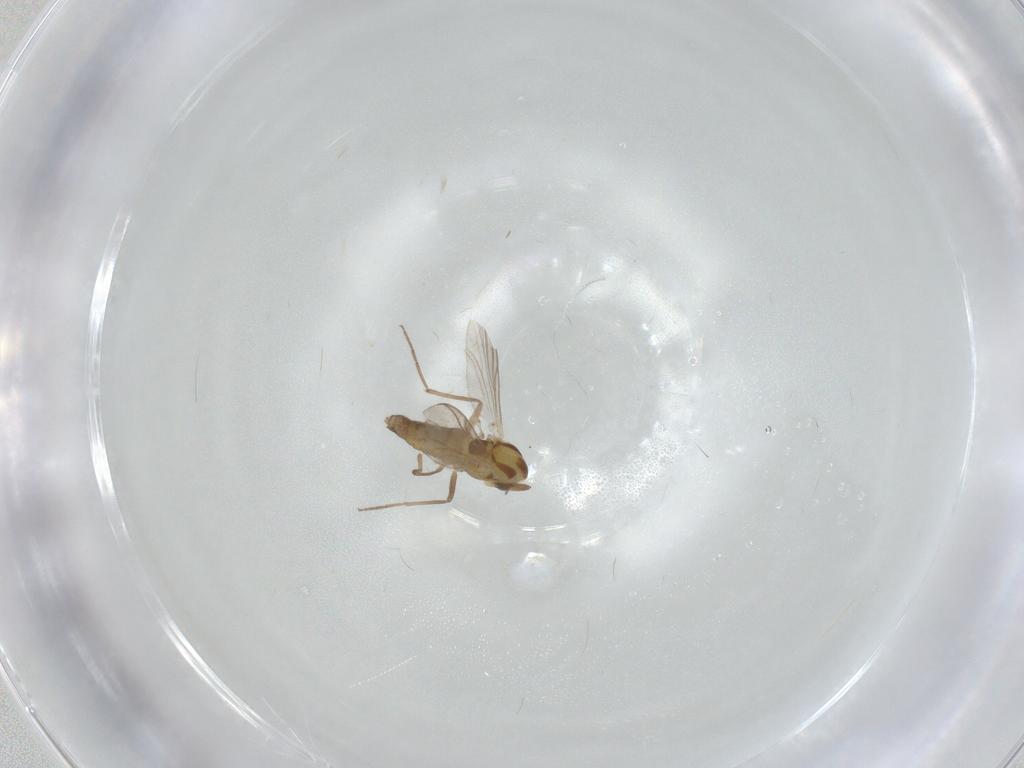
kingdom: Animalia
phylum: Arthropoda
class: Insecta
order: Diptera
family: Chironomidae
